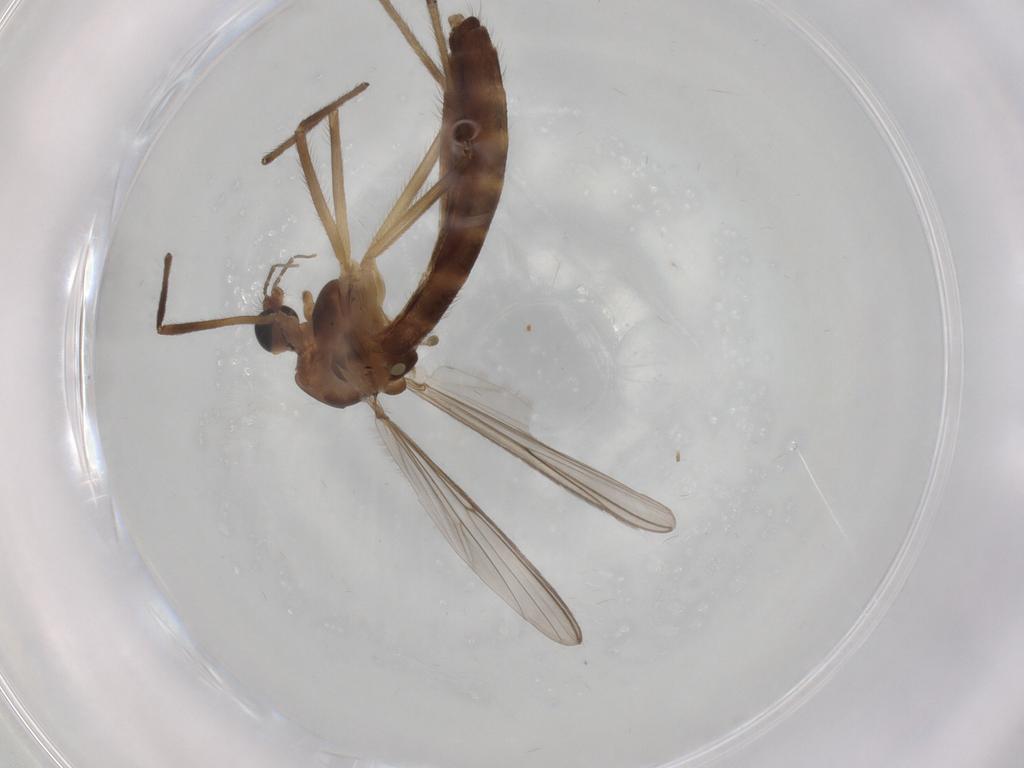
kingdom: Animalia
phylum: Arthropoda
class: Insecta
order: Diptera
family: Chironomidae
